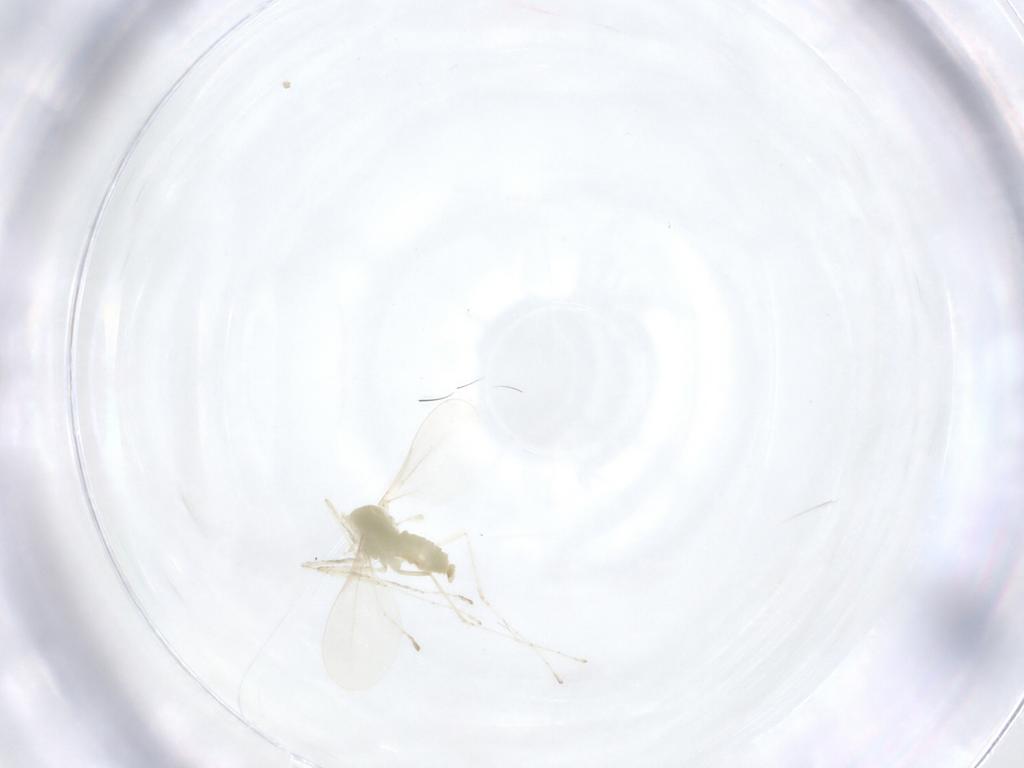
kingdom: Animalia
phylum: Arthropoda
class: Insecta
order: Diptera
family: Cecidomyiidae
